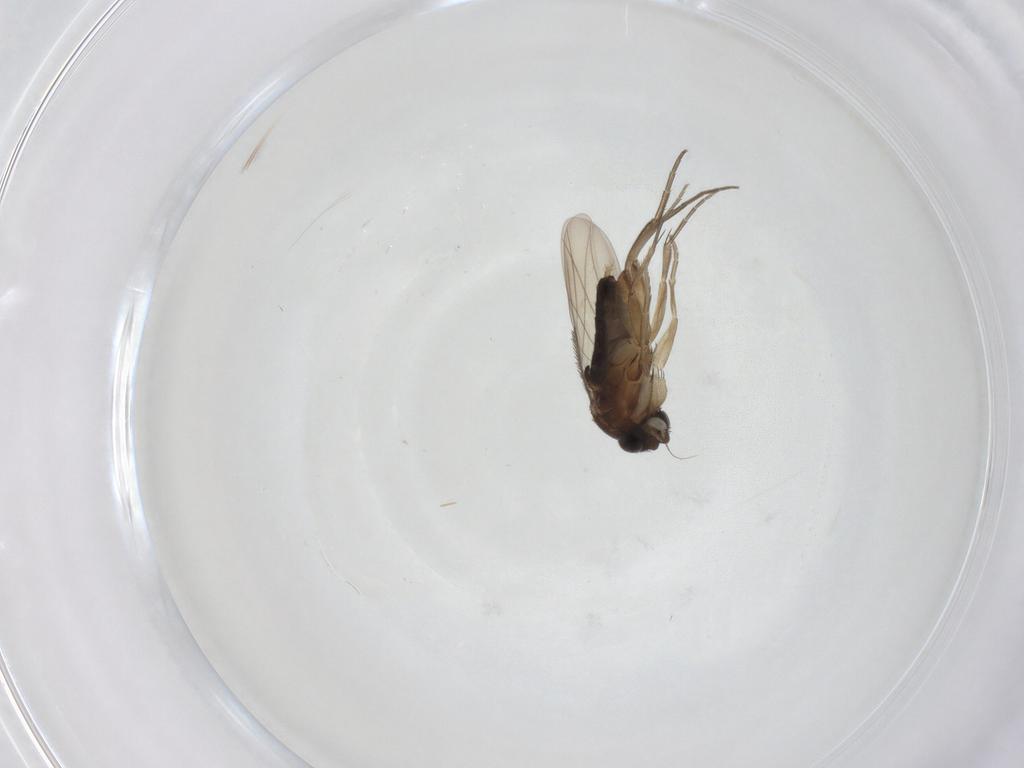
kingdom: Animalia
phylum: Arthropoda
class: Insecta
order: Diptera
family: Phoridae
